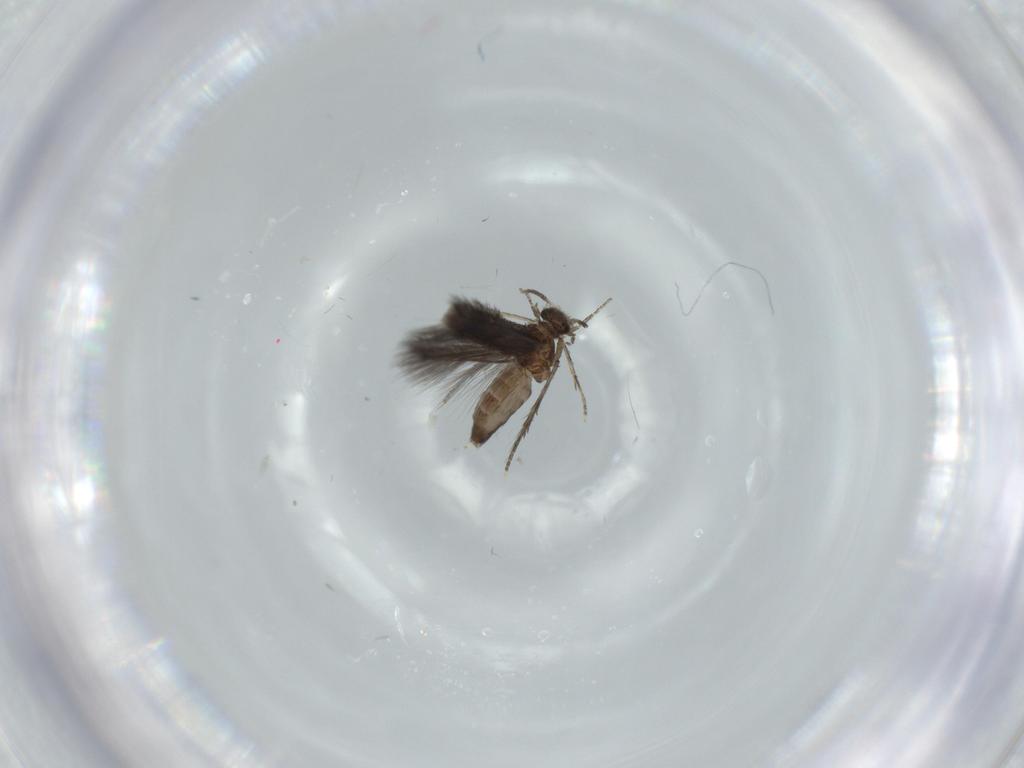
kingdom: Animalia
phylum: Arthropoda
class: Insecta
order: Trichoptera
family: Hydroptilidae
